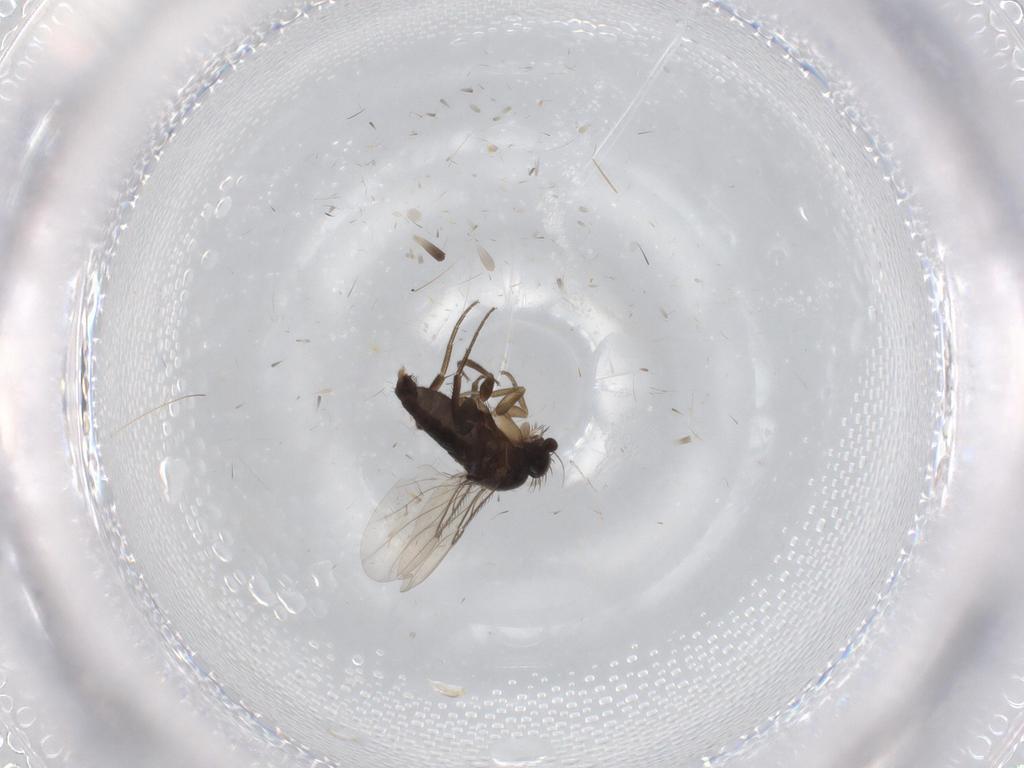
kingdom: Animalia
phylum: Arthropoda
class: Insecta
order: Diptera
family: Phoridae
